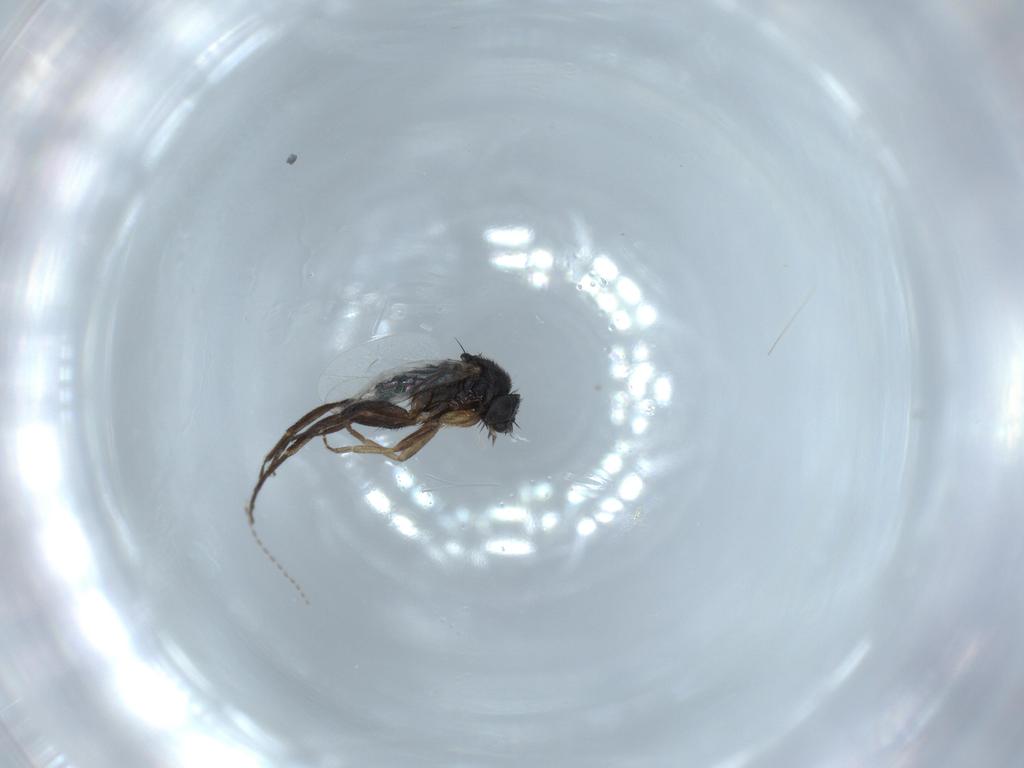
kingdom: Animalia
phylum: Arthropoda
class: Insecta
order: Diptera
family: Phoridae
